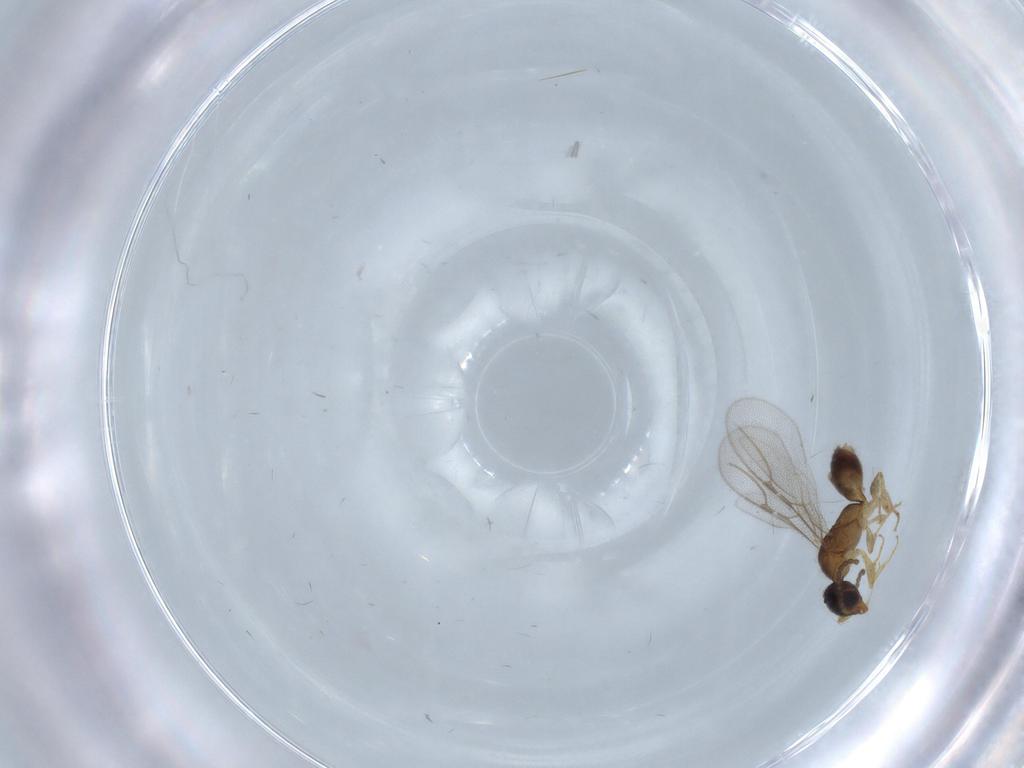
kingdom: Animalia
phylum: Arthropoda
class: Insecta
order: Hymenoptera
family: Bethylidae
